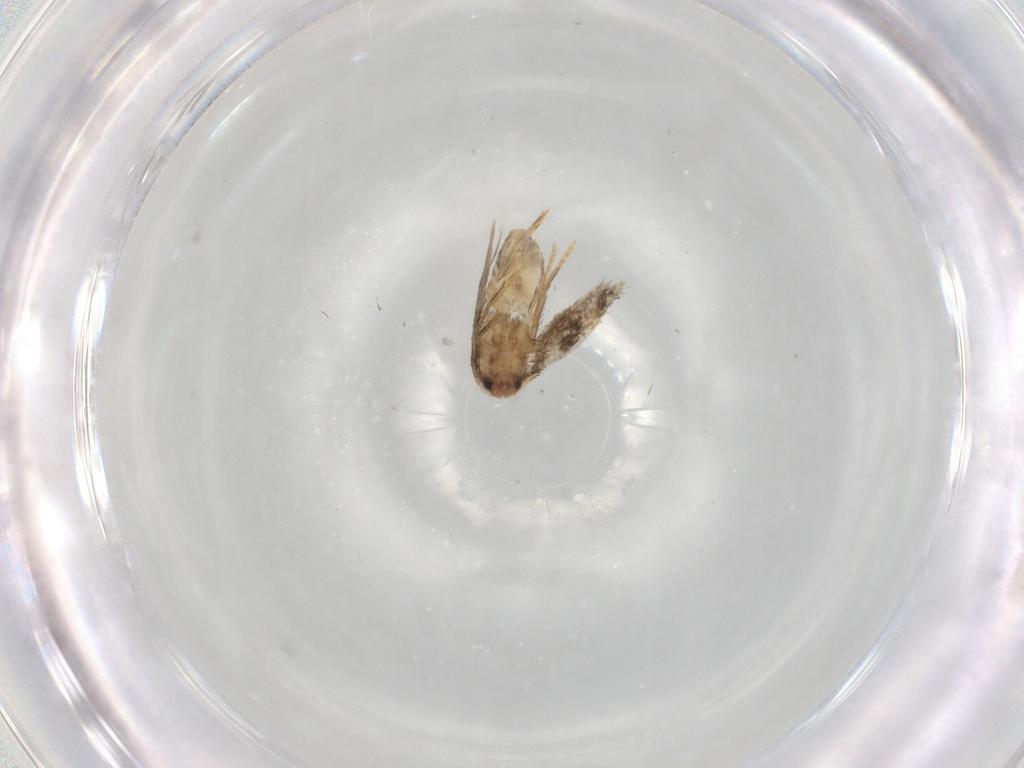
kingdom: Animalia
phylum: Arthropoda
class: Insecta
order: Lepidoptera
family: Nepticulidae
